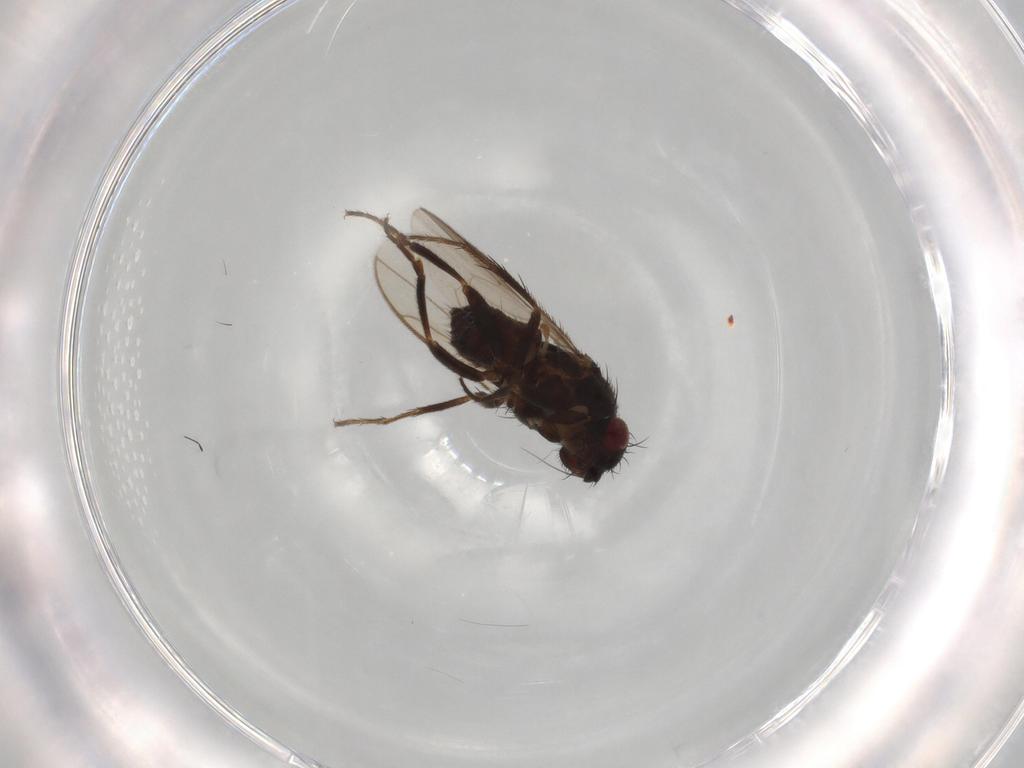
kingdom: Animalia
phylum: Arthropoda
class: Insecta
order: Diptera
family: Sphaeroceridae
